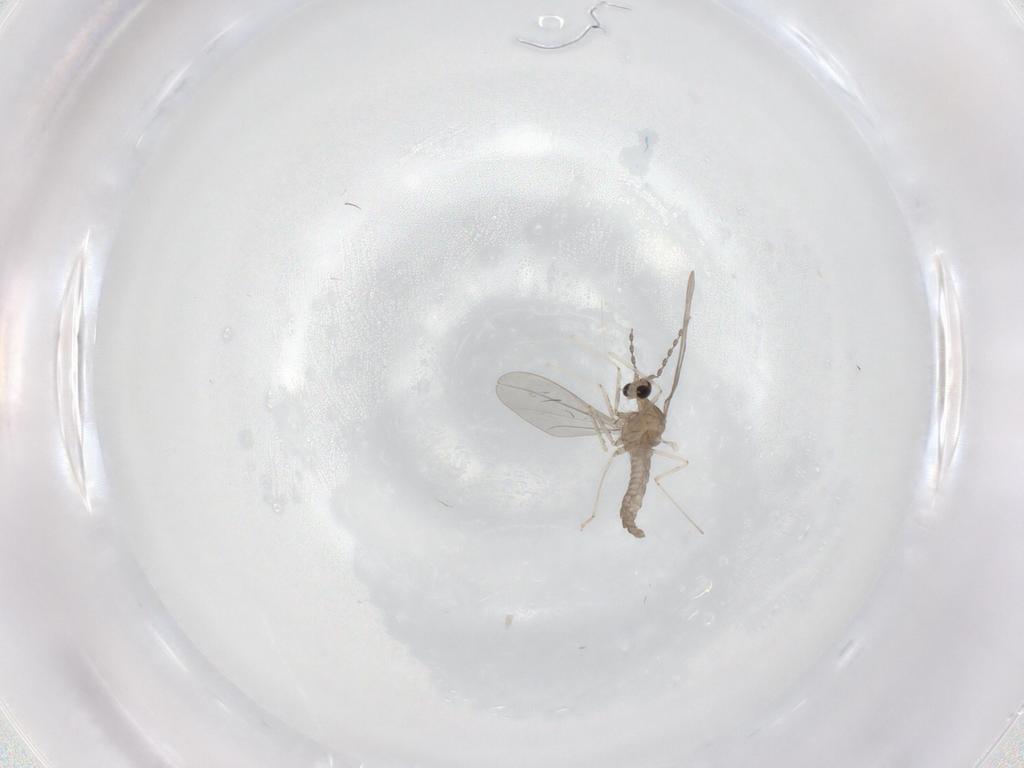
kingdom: Animalia
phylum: Arthropoda
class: Insecta
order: Diptera
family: Cecidomyiidae
